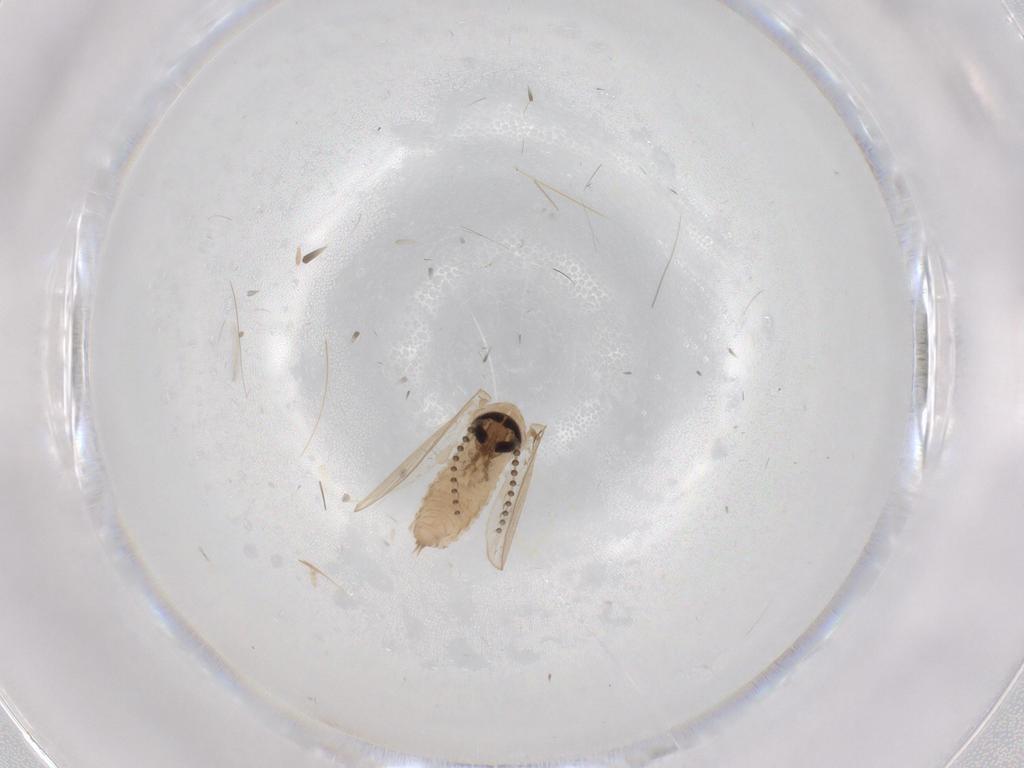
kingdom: Animalia
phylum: Arthropoda
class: Insecta
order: Diptera
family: Psychodidae
